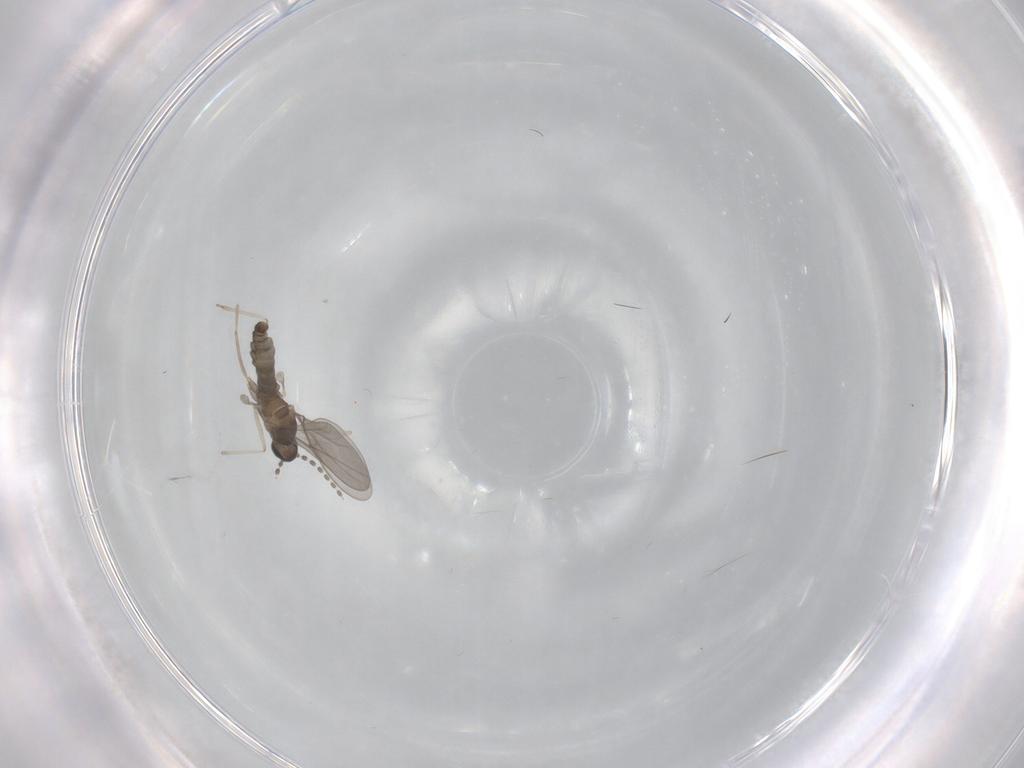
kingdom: Animalia
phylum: Arthropoda
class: Insecta
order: Diptera
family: Cecidomyiidae
